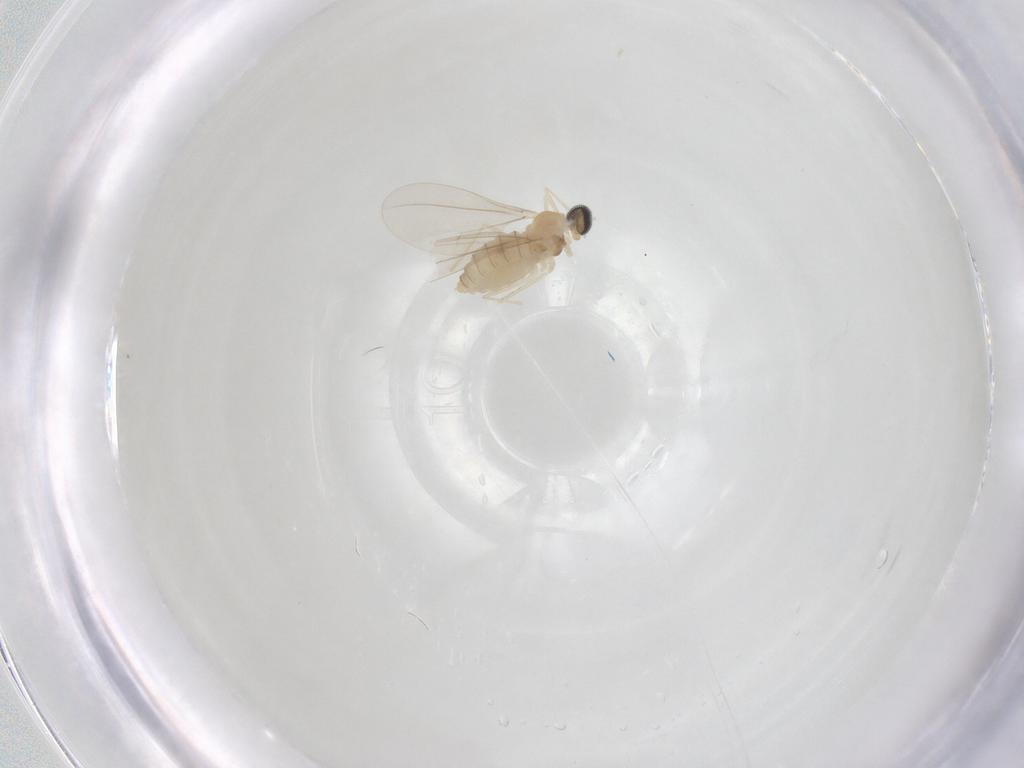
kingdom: Animalia
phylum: Arthropoda
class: Insecta
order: Diptera
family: Cecidomyiidae
